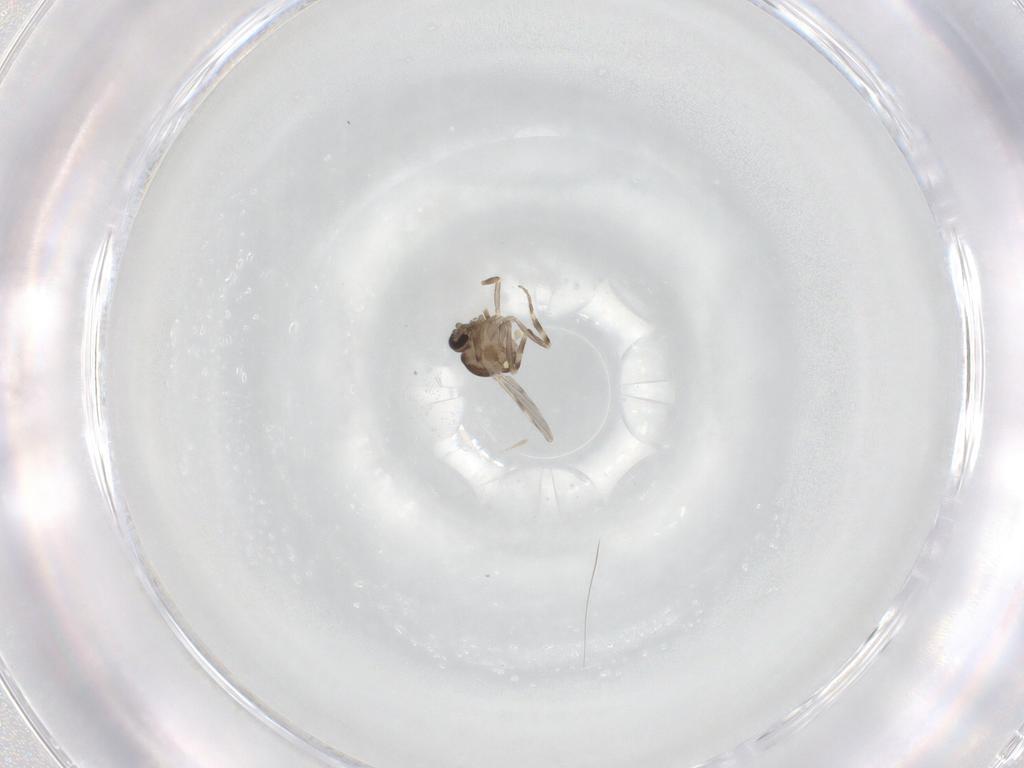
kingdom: Animalia
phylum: Arthropoda
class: Insecta
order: Diptera
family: Ceratopogonidae
